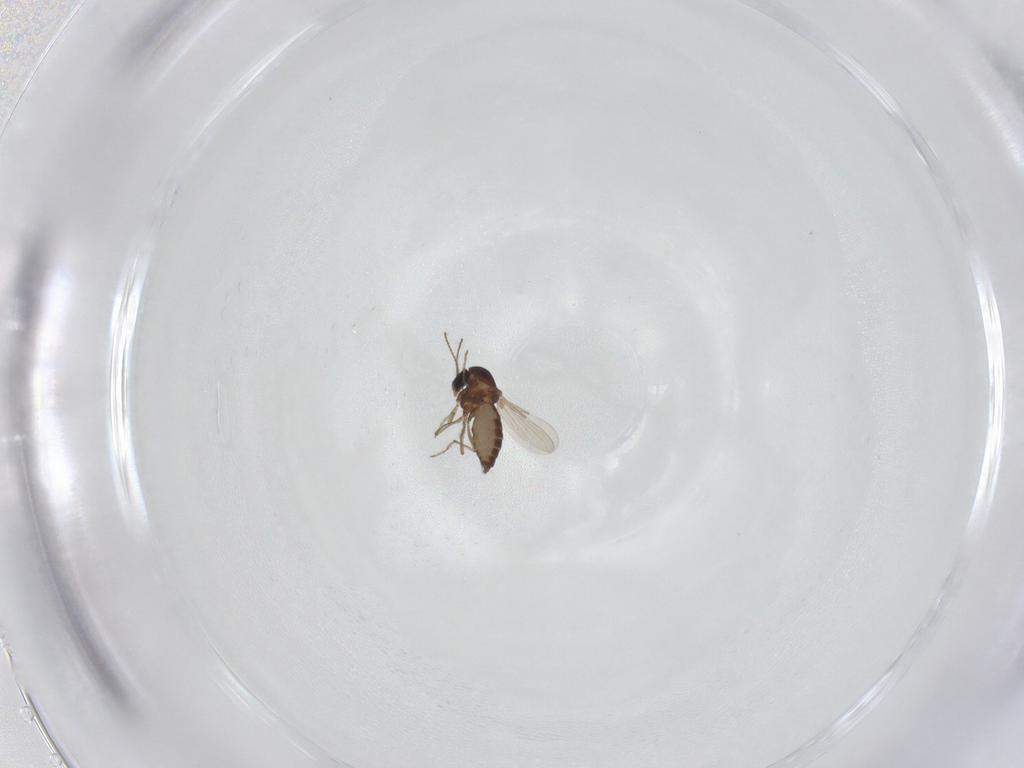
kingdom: Animalia
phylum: Arthropoda
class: Insecta
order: Diptera
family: Ceratopogonidae
